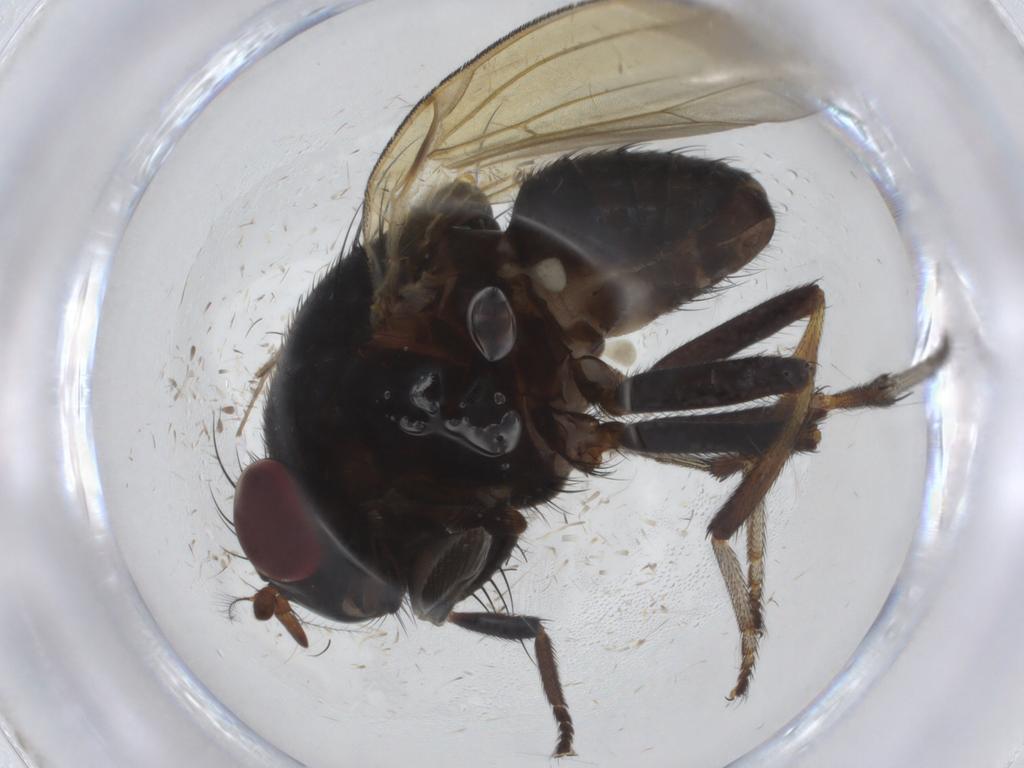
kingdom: Animalia
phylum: Arthropoda
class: Insecta
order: Diptera
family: Lauxaniidae
